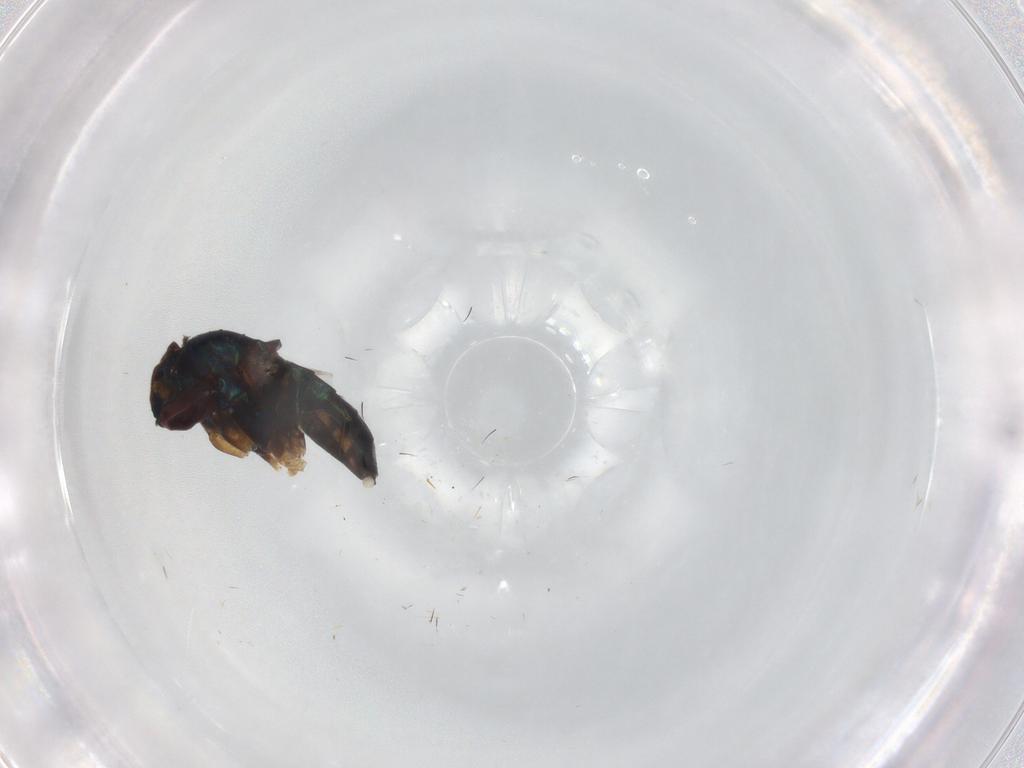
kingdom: Animalia
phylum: Arthropoda
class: Insecta
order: Diptera
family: Dolichopodidae
